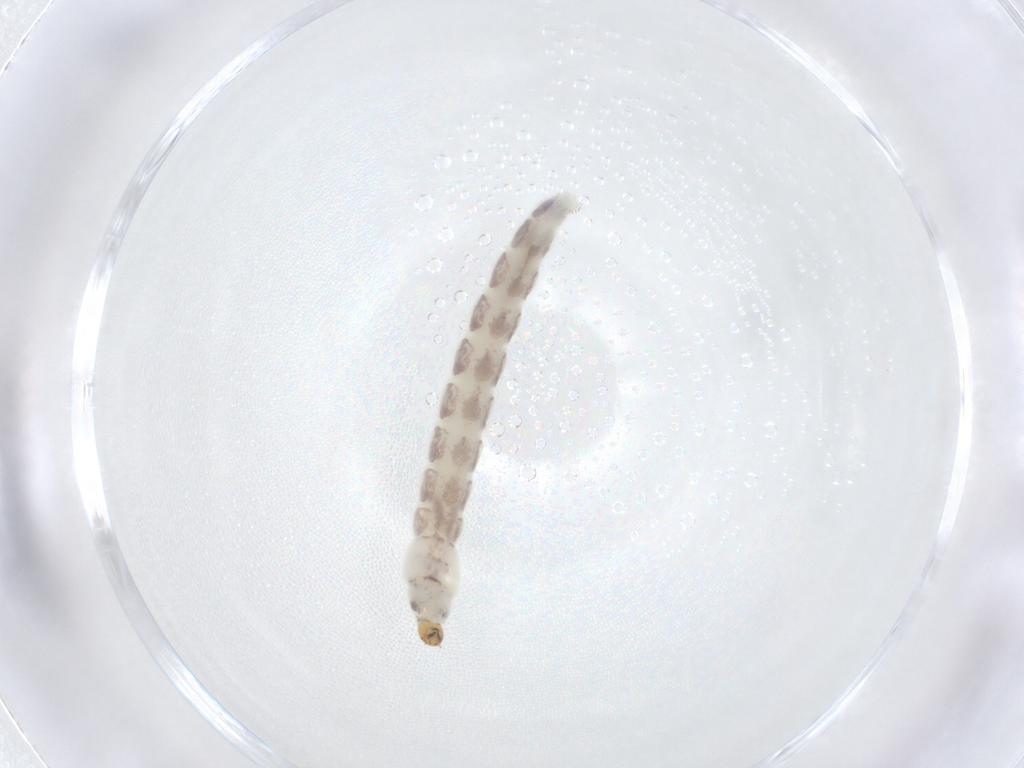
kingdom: Animalia
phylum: Arthropoda
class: Insecta
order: Diptera
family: Chironomidae
